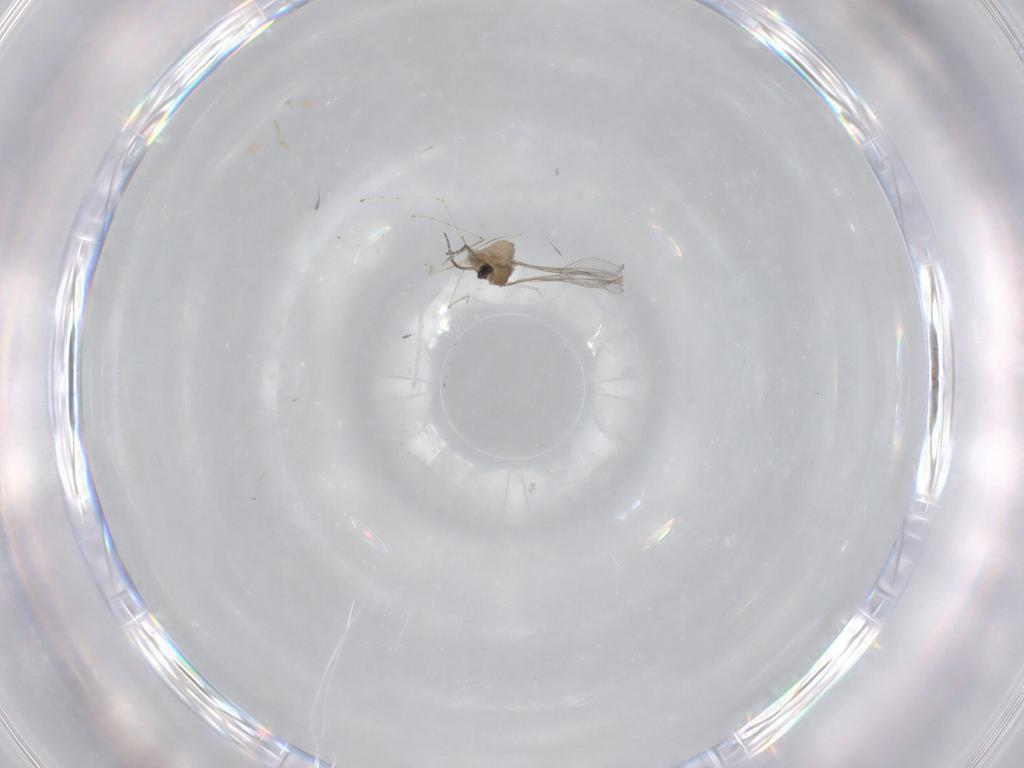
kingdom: Animalia
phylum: Arthropoda
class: Insecta
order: Diptera
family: Cecidomyiidae
